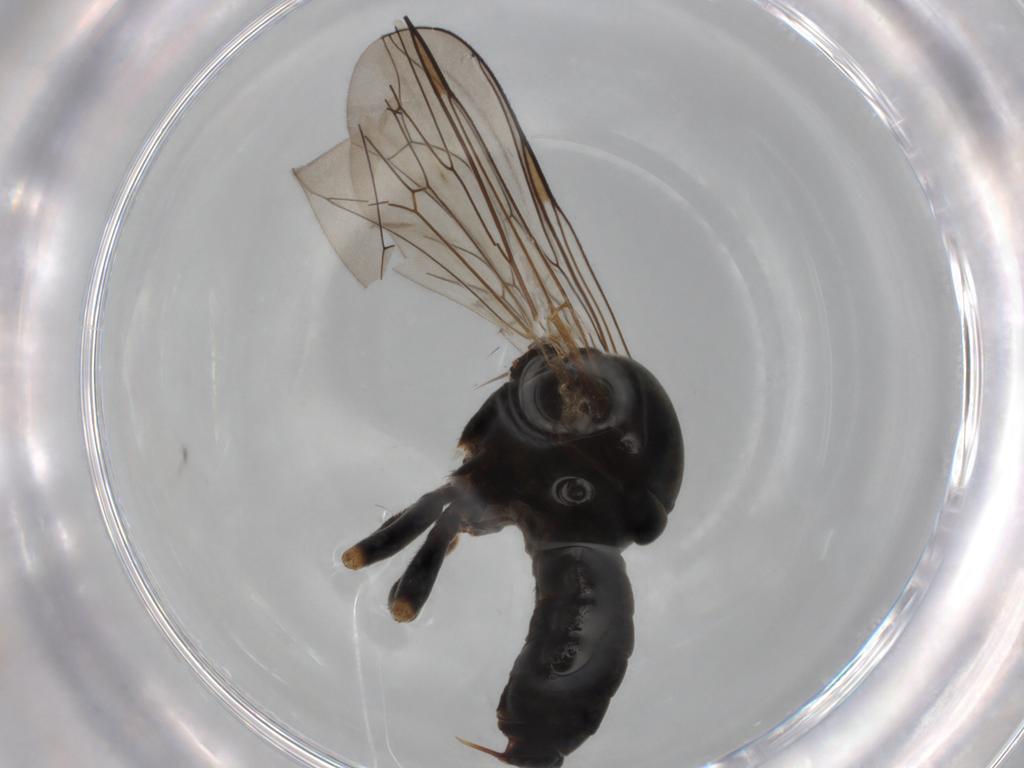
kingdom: Animalia
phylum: Arthropoda
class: Insecta
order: Diptera
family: Pipunculidae
